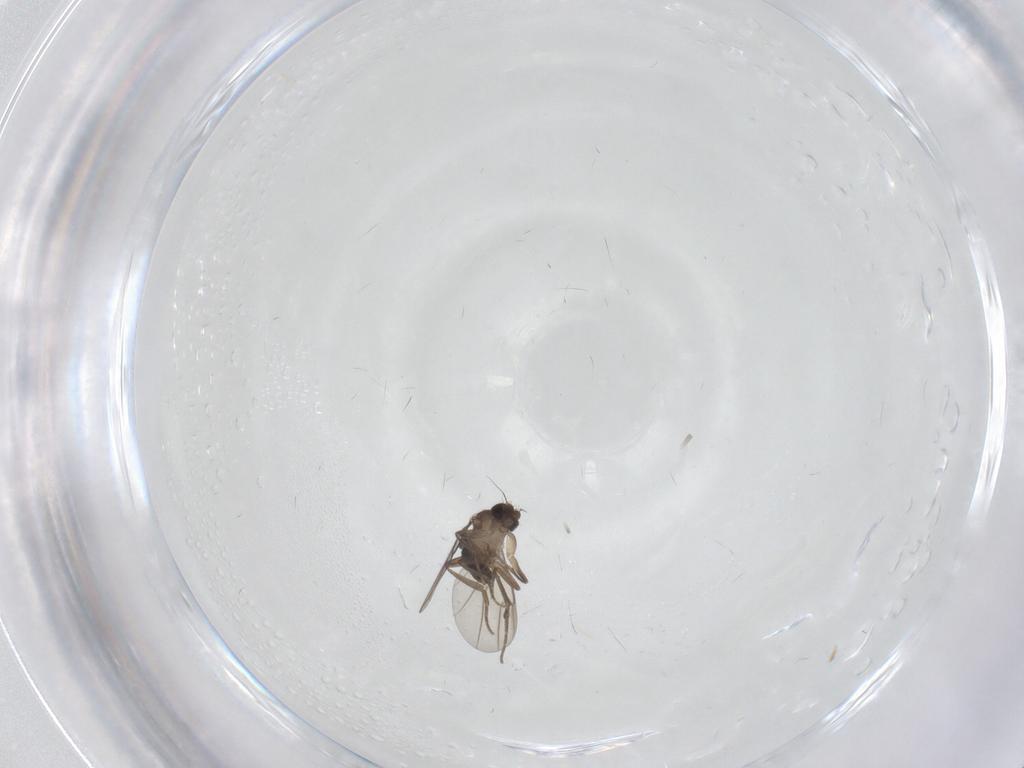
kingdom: Animalia
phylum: Arthropoda
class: Insecta
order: Diptera
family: Phoridae
